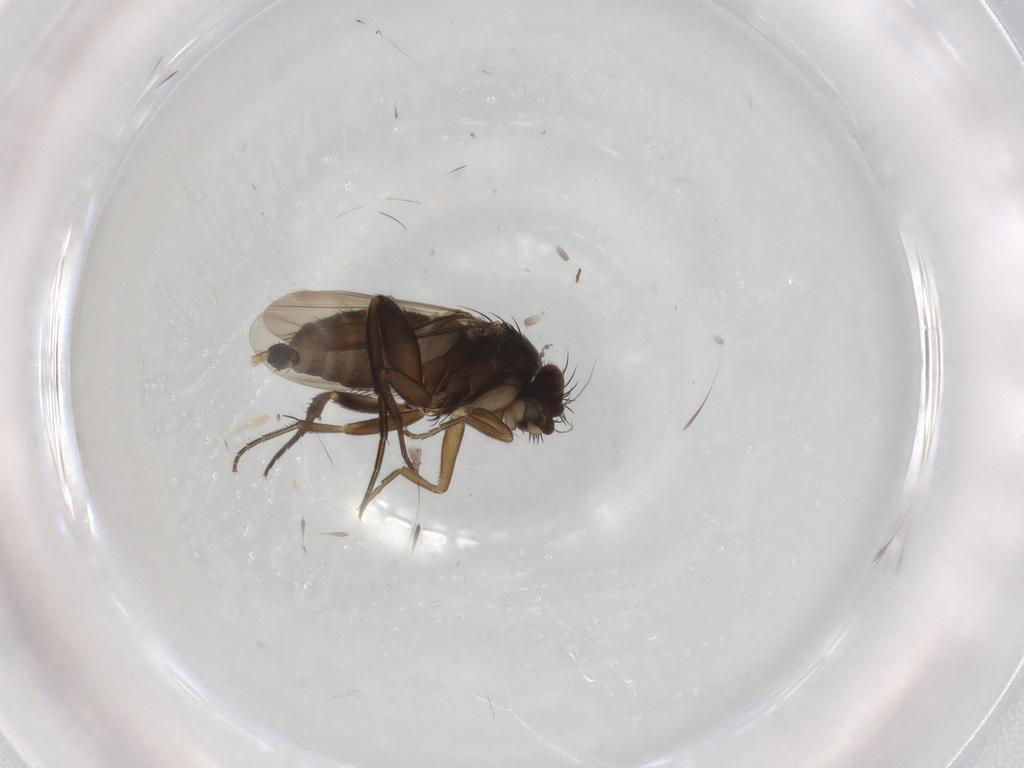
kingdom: Animalia
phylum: Arthropoda
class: Insecta
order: Diptera
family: Phoridae
